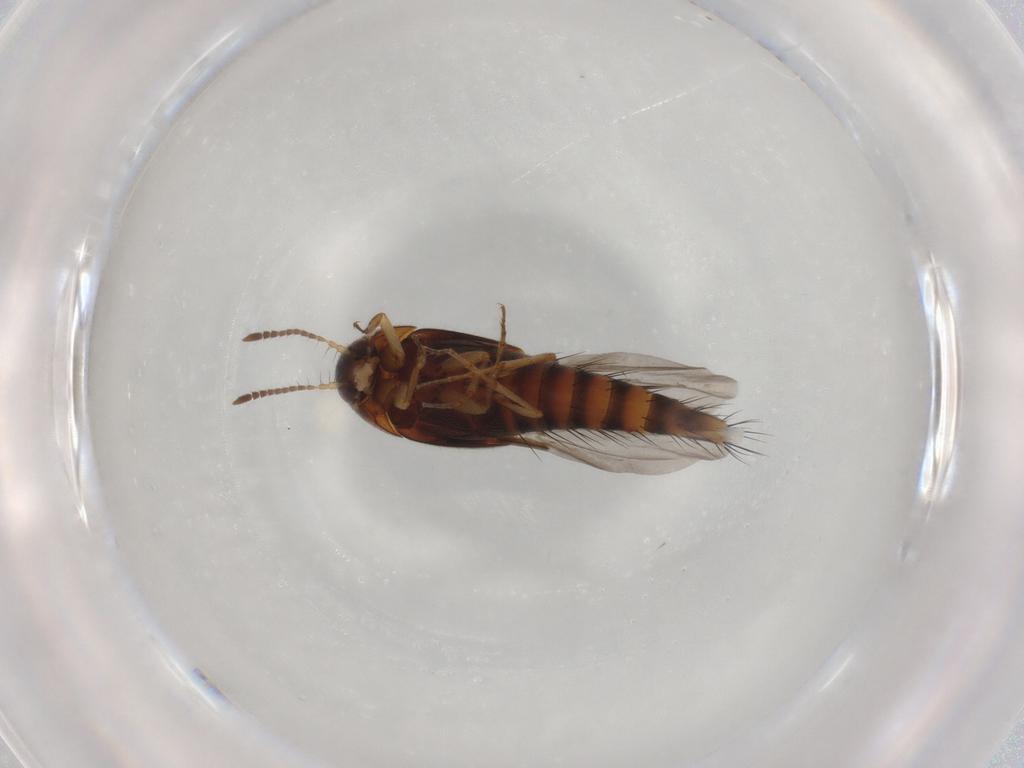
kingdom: Animalia
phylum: Arthropoda
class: Insecta
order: Coleoptera
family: Staphylinidae
